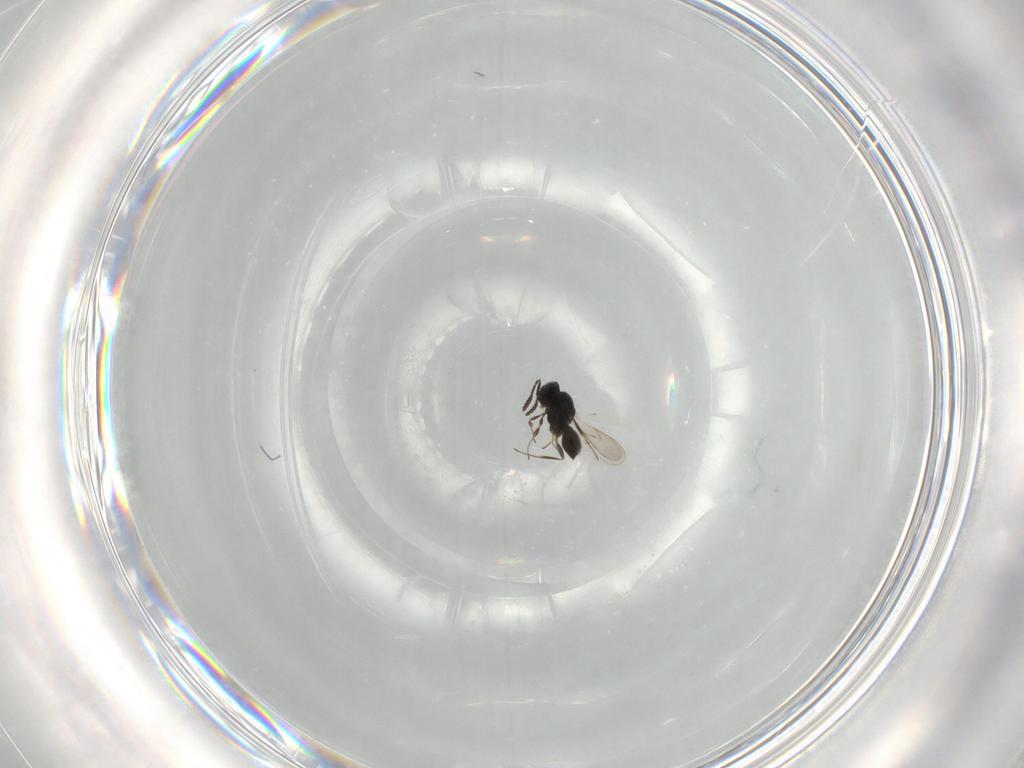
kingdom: Animalia
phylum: Arthropoda
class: Insecta
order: Hymenoptera
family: Scelionidae
